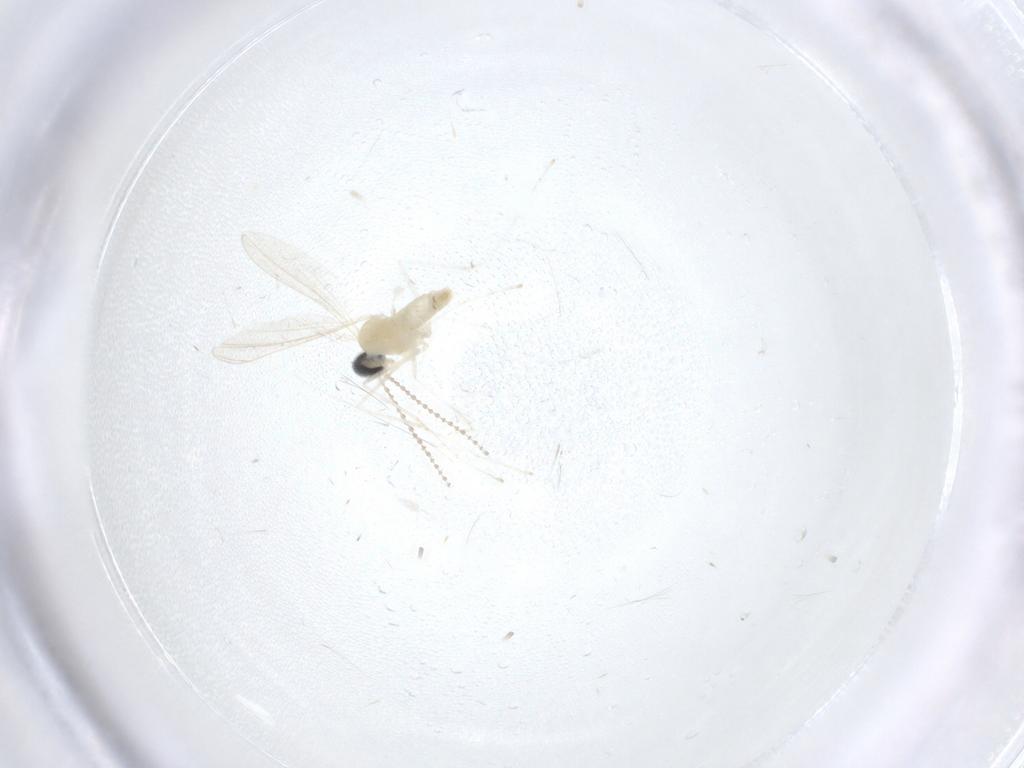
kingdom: Animalia
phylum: Arthropoda
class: Insecta
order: Diptera
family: Cecidomyiidae
